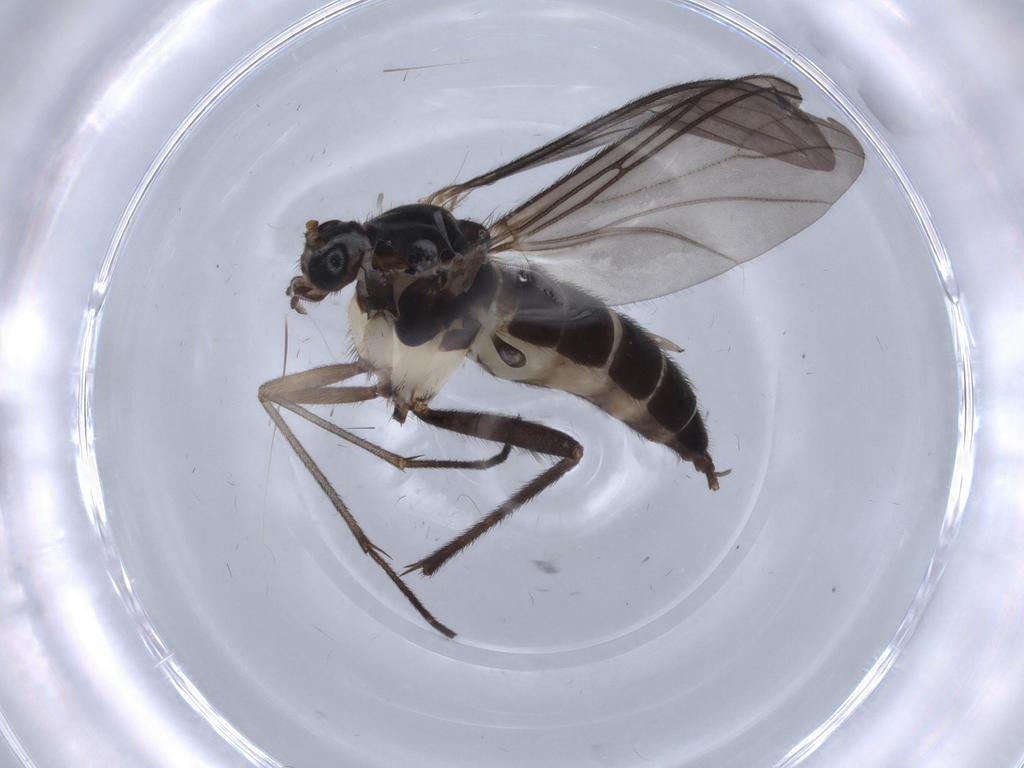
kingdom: Animalia
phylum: Arthropoda
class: Insecta
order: Diptera
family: Sciaridae
